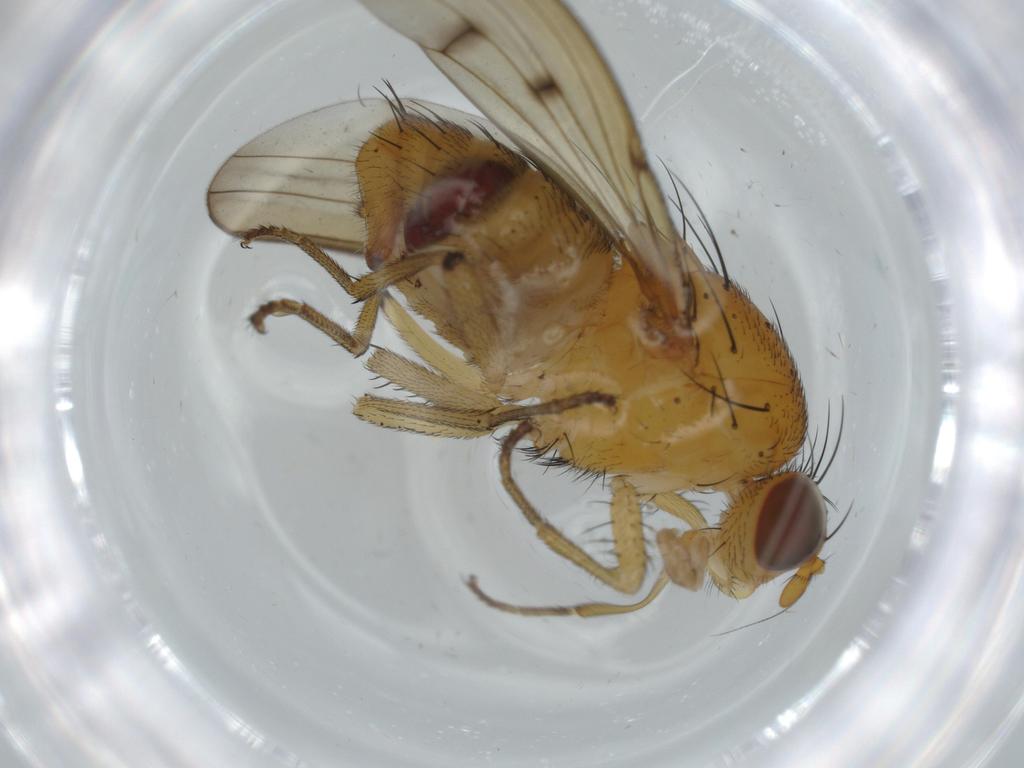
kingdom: Animalia
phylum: Arthropoda
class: Insecta
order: Diptera
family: Lauxaniidae
